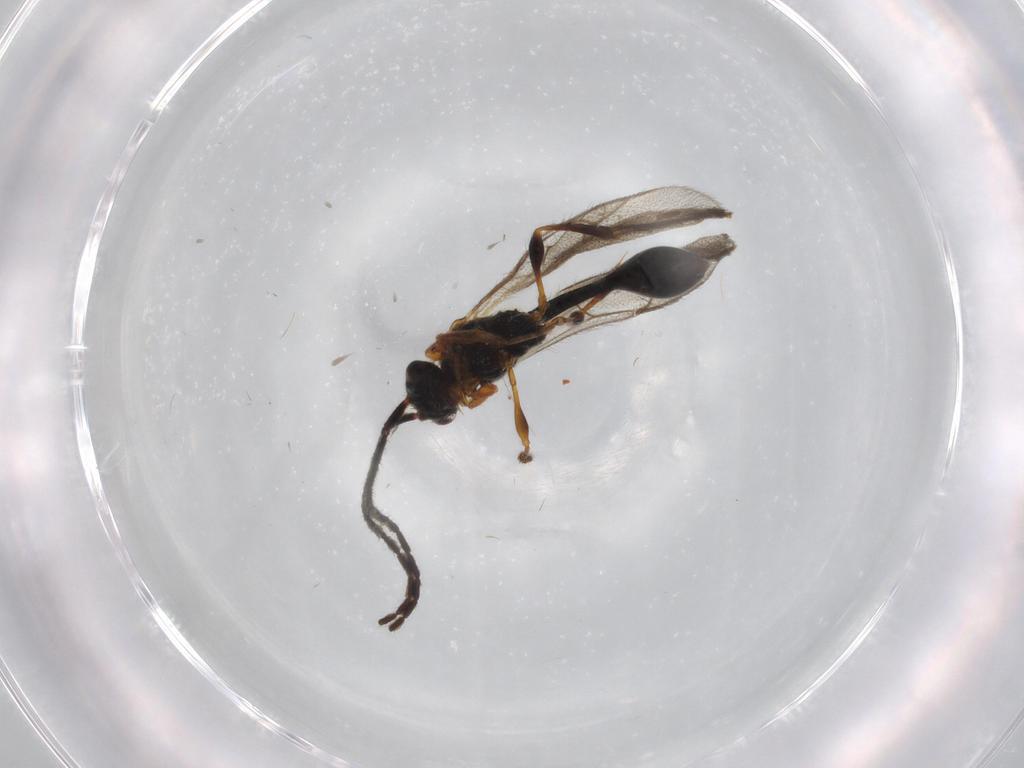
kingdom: Animalia
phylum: Arthropoda
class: Insecta
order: Hymenoptera
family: Diapriidae
